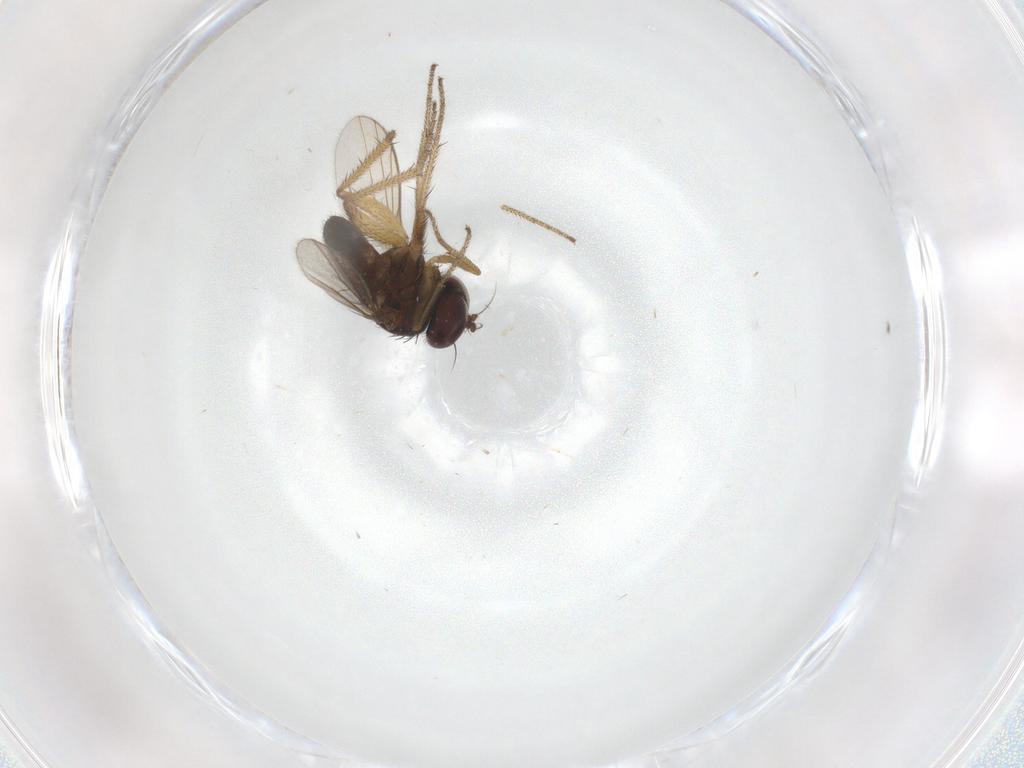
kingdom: Animalia
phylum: Arthropoda
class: Insecta
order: Diptera
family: Dolichopodidae
